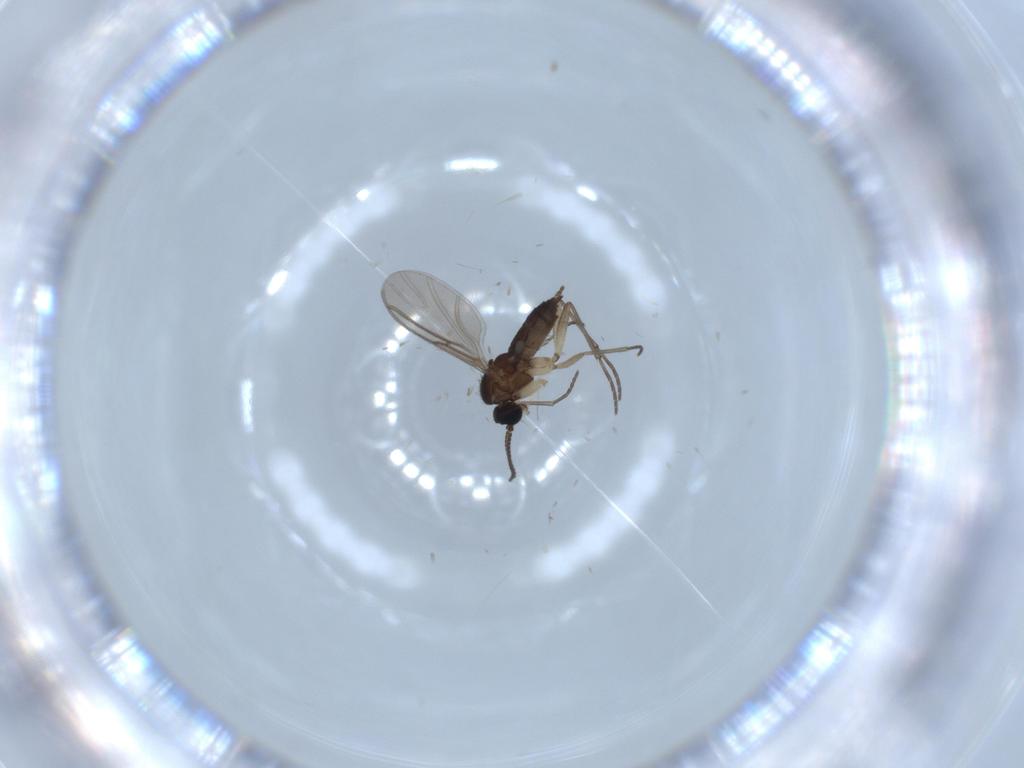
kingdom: Animalia
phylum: Arthropoda
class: Insecta
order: Diptera
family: Sciaridae
